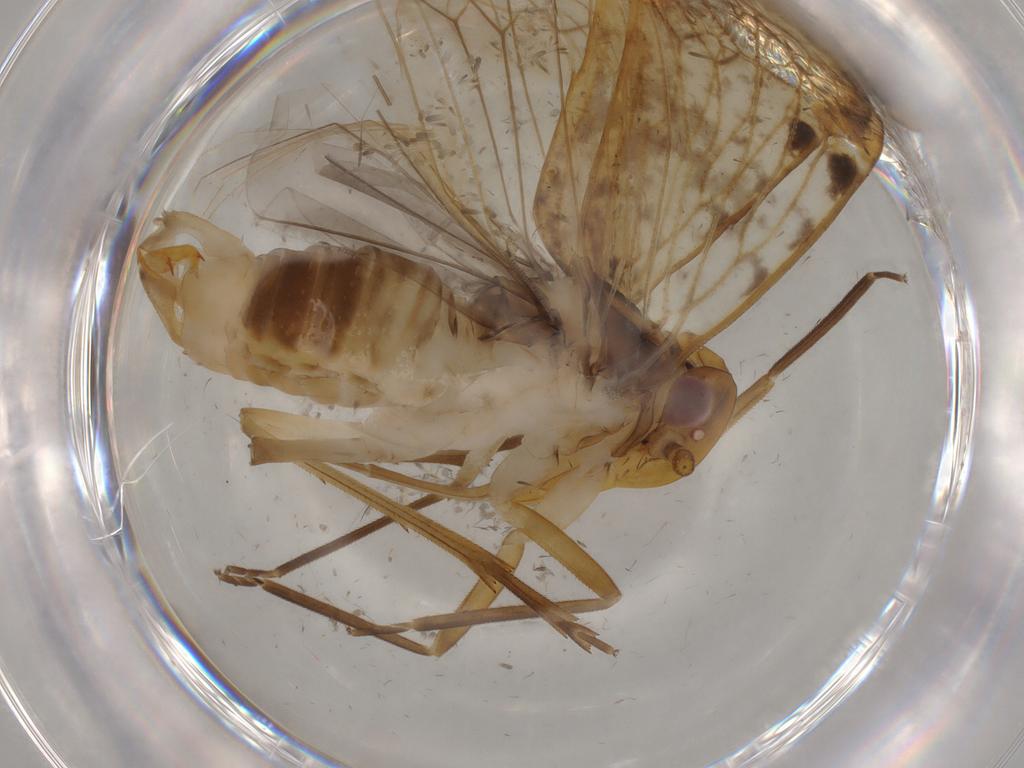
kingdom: Animalia
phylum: Arthropoda
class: Insecta
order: Hemiptera
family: Cixiidae
